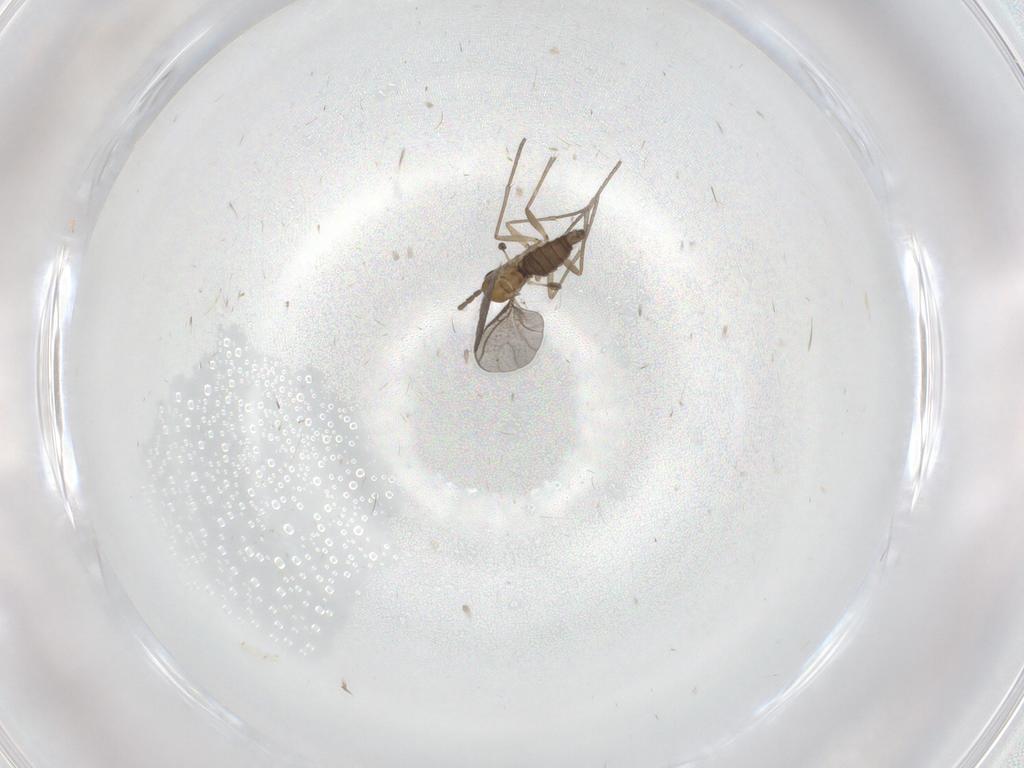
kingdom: Animalia
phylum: Arthropoda
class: Insecta
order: Diptera
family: Sciaridae
